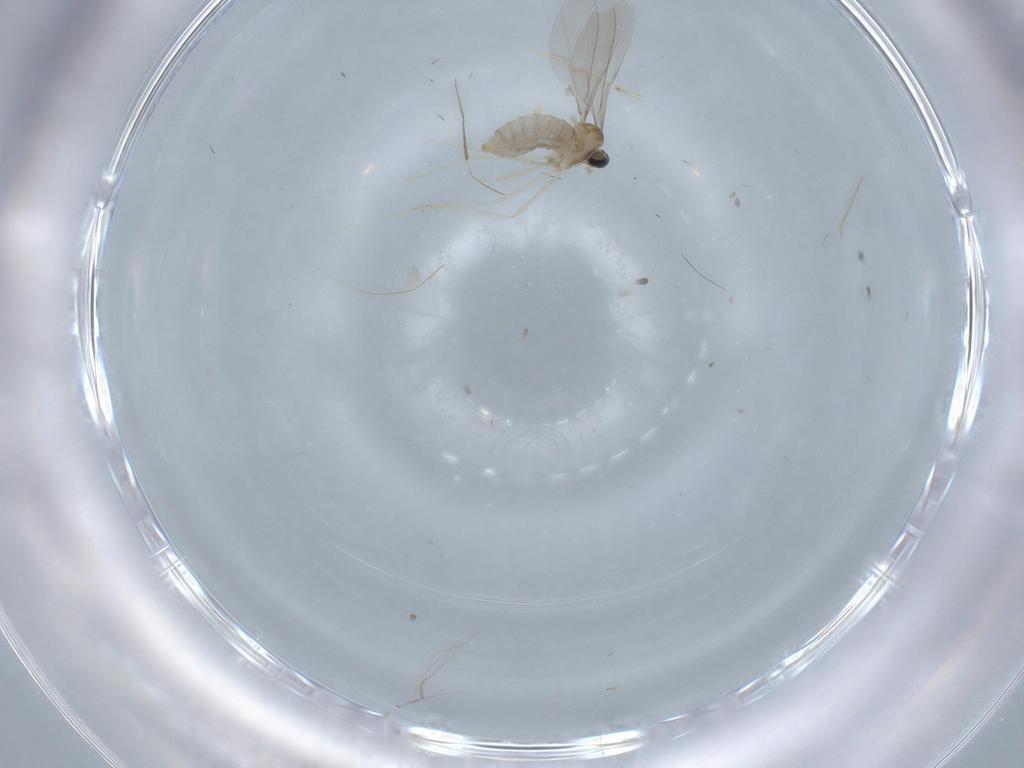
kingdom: Animalia
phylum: Arthropoda
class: Insecta
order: Diptera
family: Cecidomyiidae
